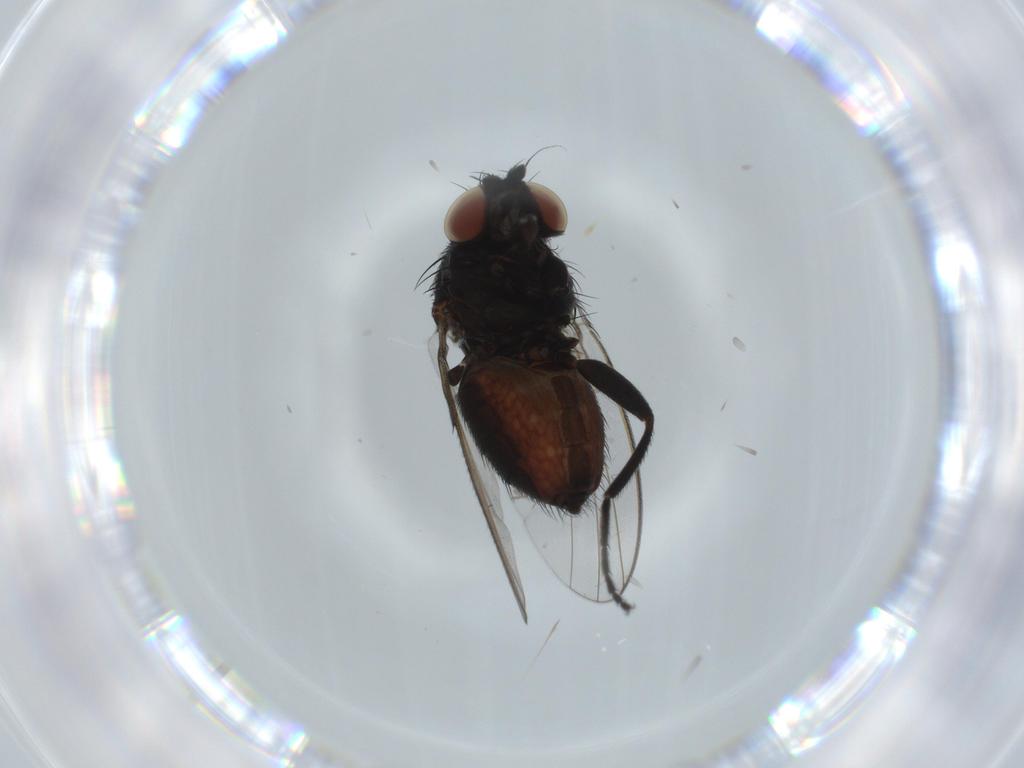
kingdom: Animalia
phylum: Arthropoda
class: Insecta
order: Diptera
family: Milichiidae
